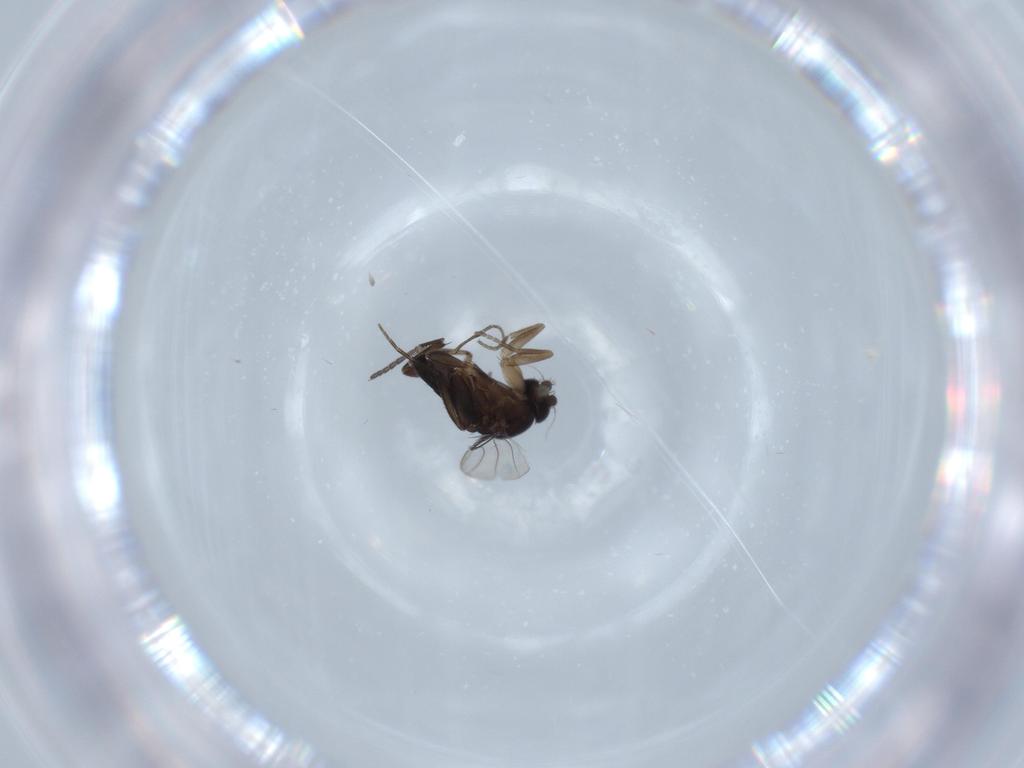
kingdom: Animalia
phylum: Arthropoda
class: Insecta
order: Diptera
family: Phoridae
